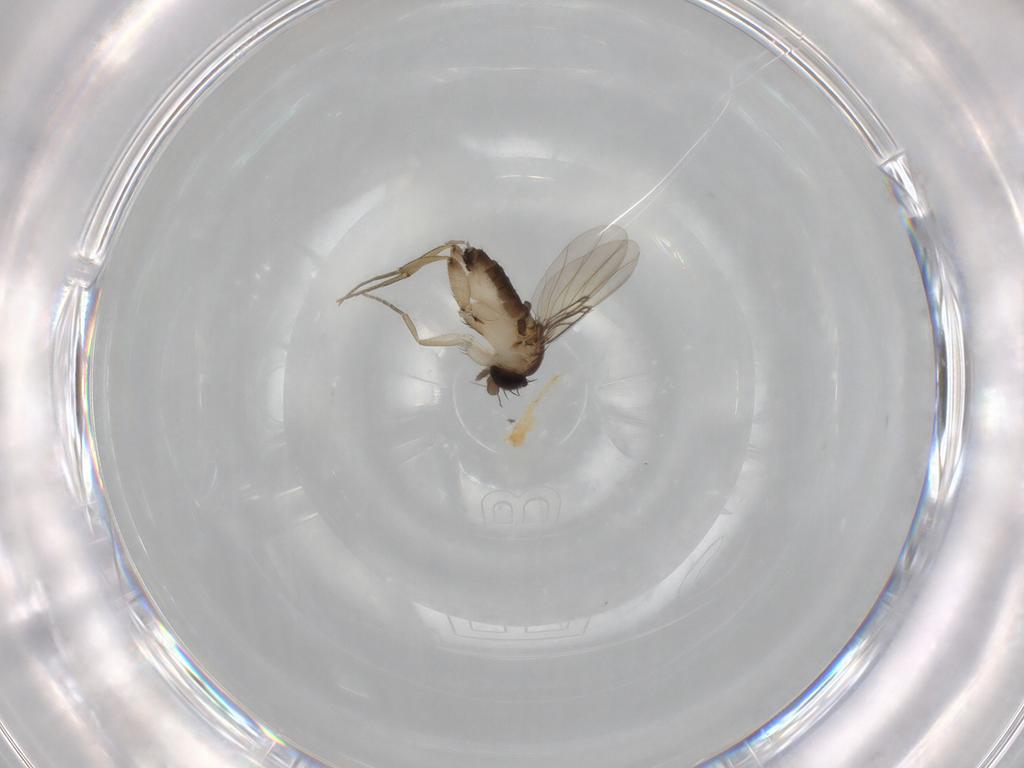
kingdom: Animalia
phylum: Arthropoda
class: Insecta
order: Diptera
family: Phoridae
